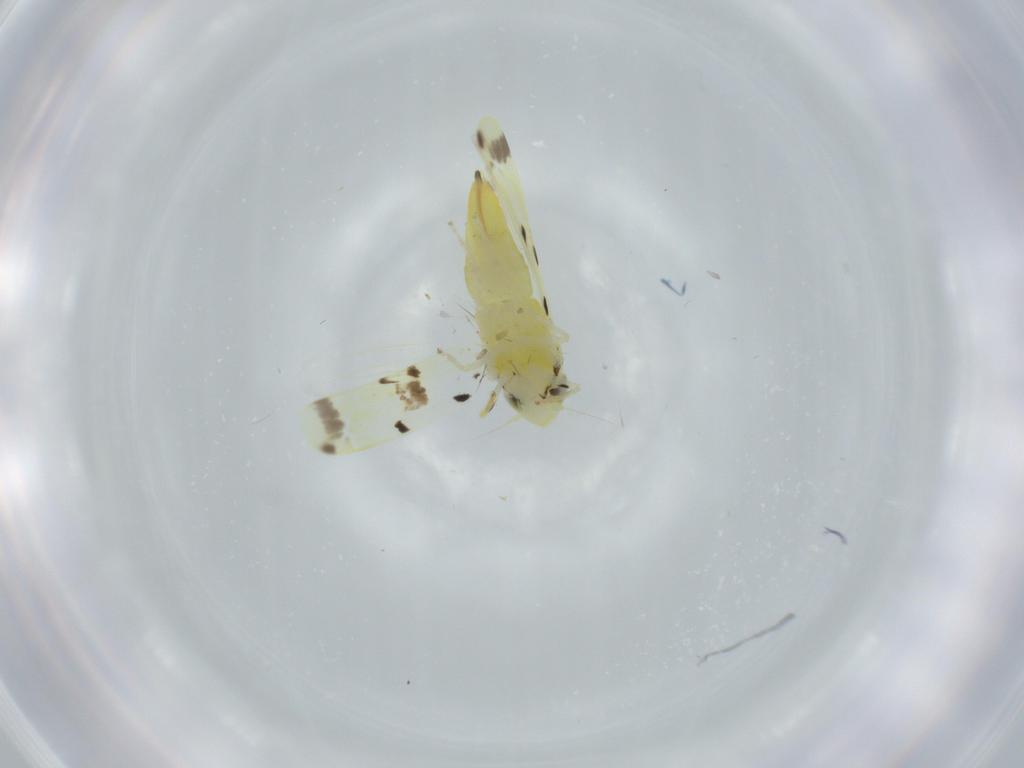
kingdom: Animalia
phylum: Arthropoda
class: Insecta
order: Hemiptera
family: Cicadellidae
